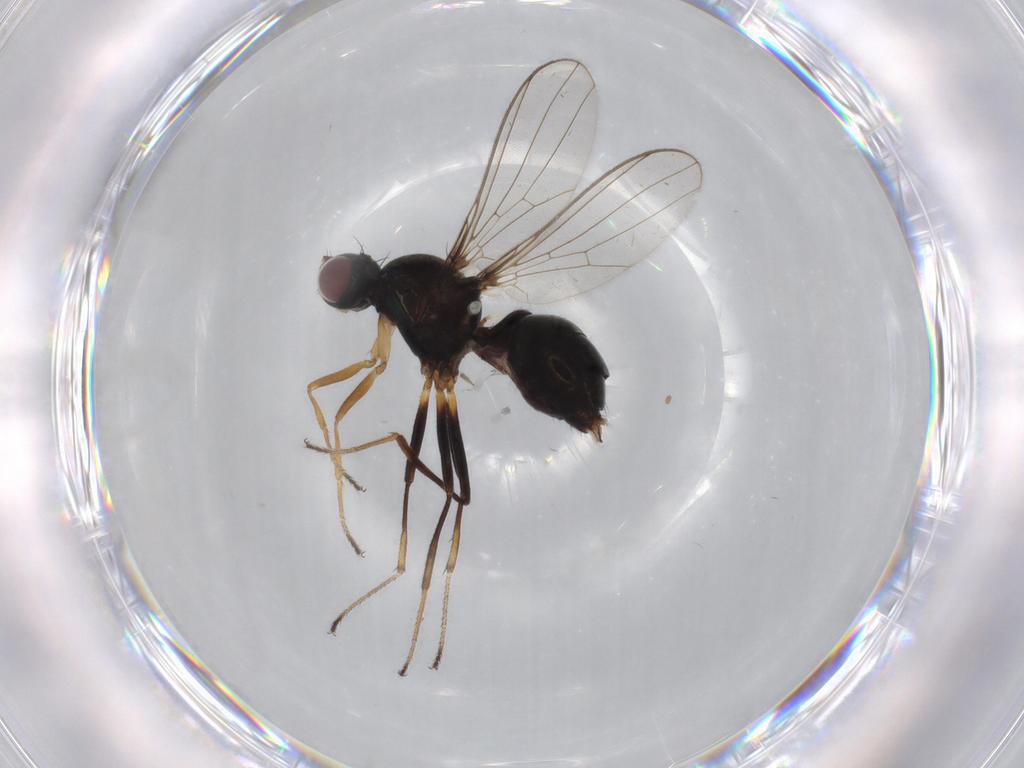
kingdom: Animalia
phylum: Arthropoda
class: Insecta
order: Diptera
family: Sepsidae
